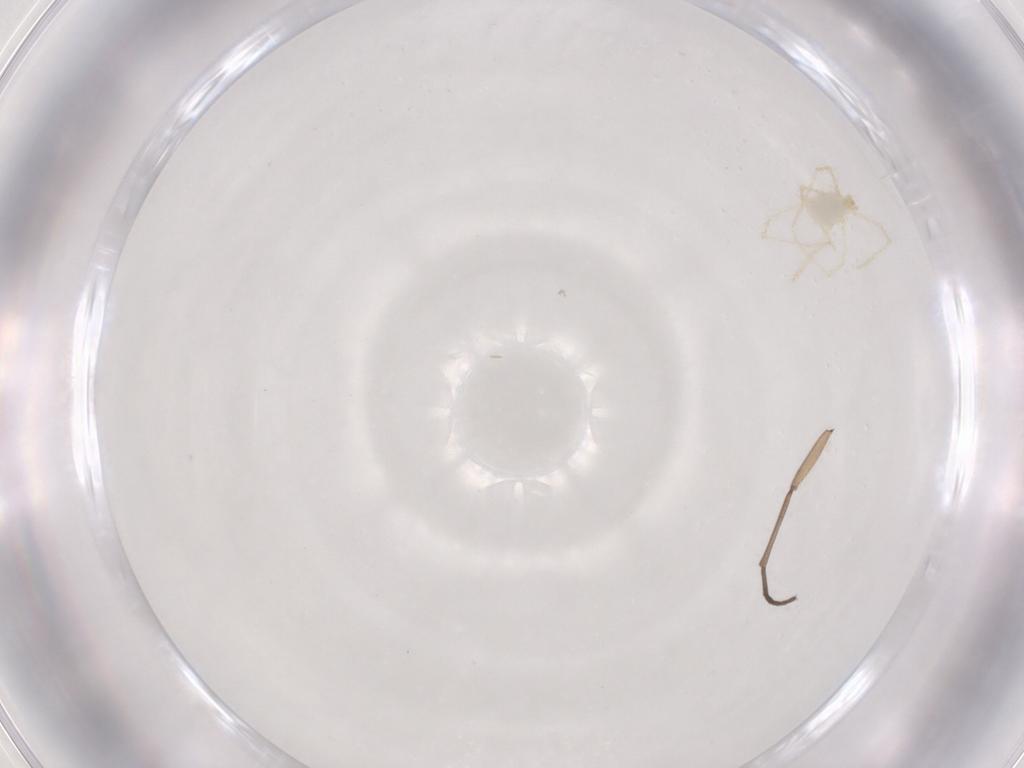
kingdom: Animalia
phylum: Arthropoda
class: Insecta
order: Diptera
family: Sciaridae
